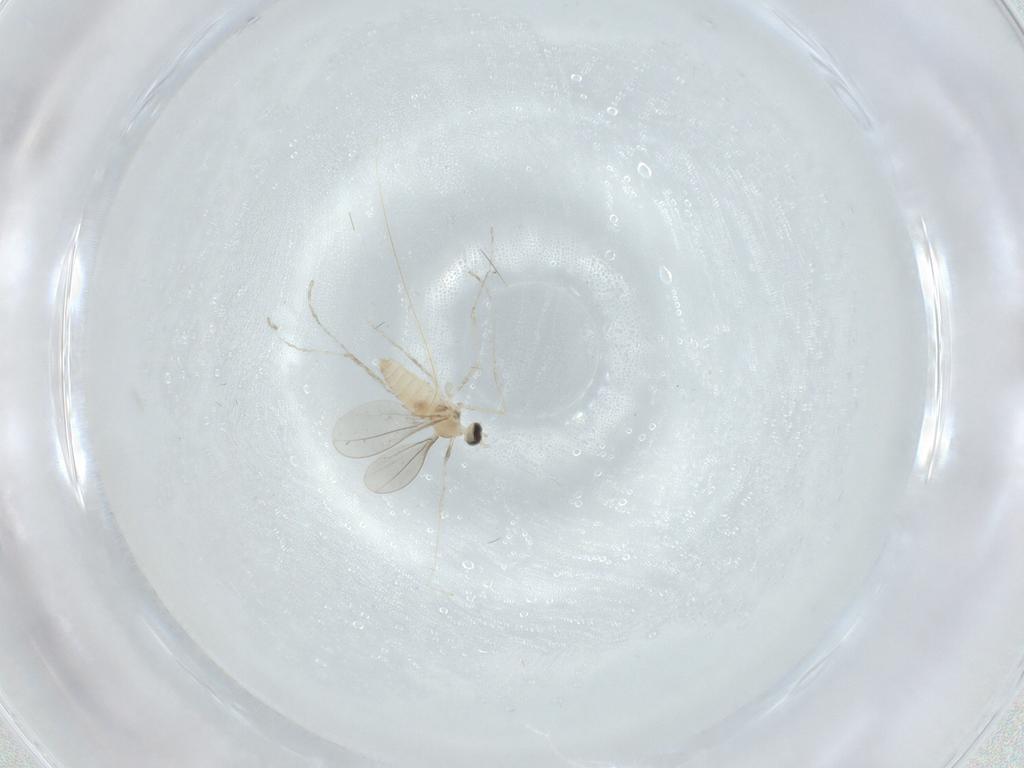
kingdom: Animalia
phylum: Arthropoda
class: Insecta
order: Diptera
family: Cecidomyiidae
